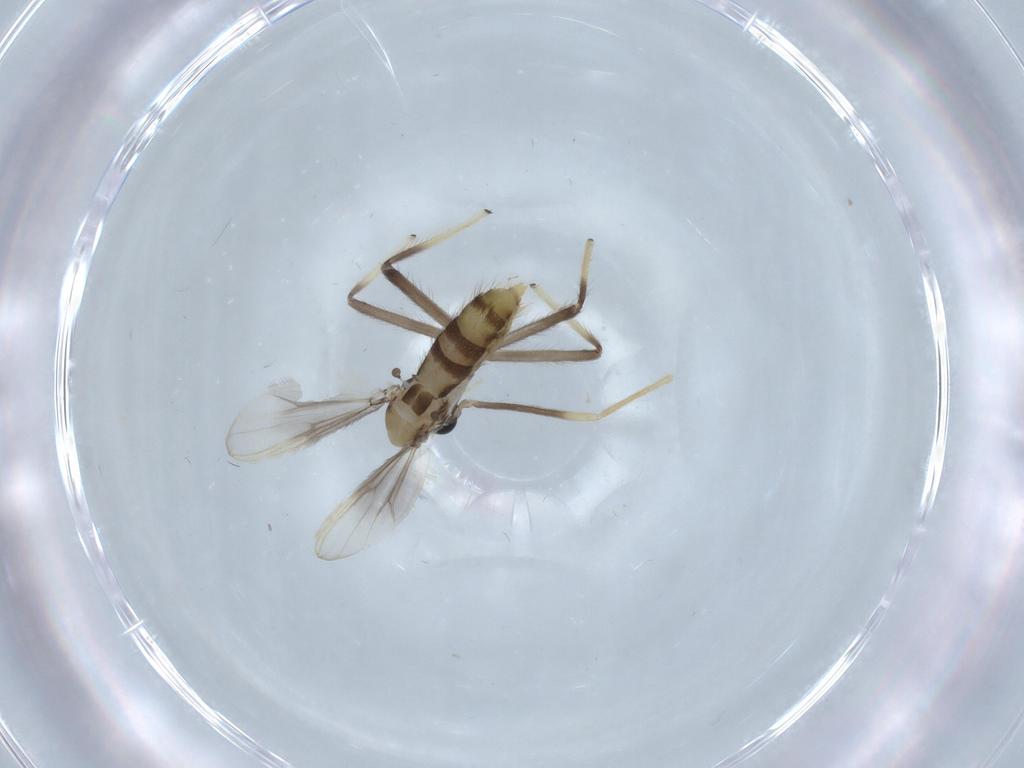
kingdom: Animalia
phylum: Arthropoda
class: Insecta
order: Diptera
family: Chironomidae
